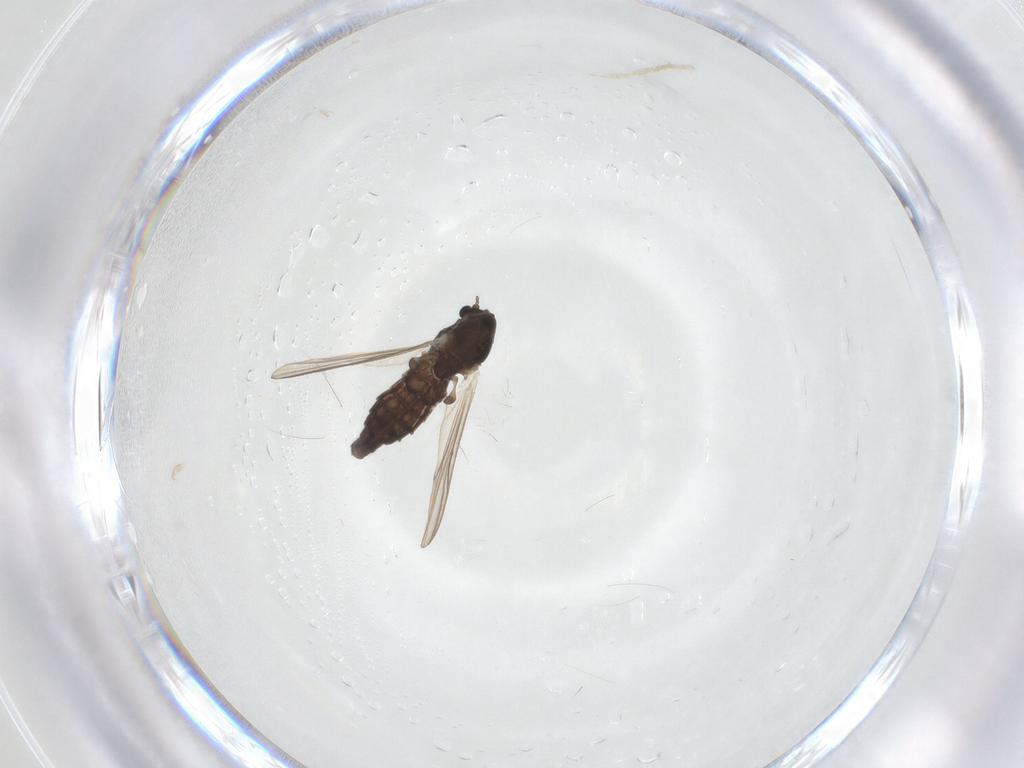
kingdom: Animalia
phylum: Arthropoda
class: Insecta
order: Diptera
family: Chironomidae
